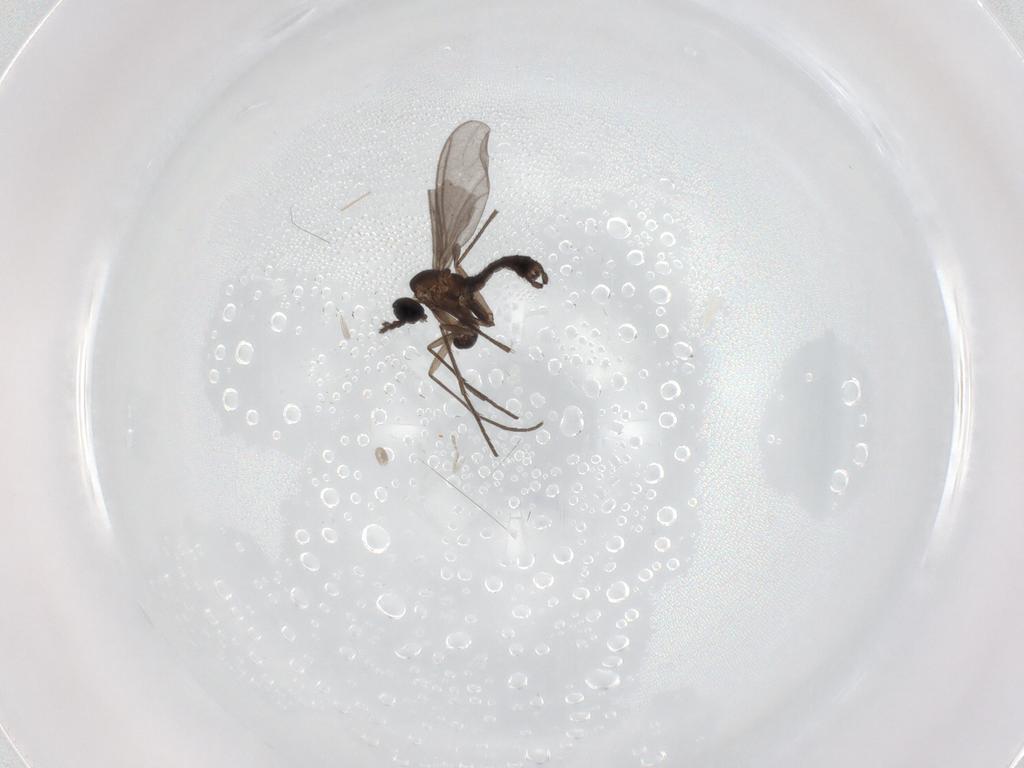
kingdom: Animalia
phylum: Arthropoda
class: Insecta
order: Diptera
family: Sciaridae
